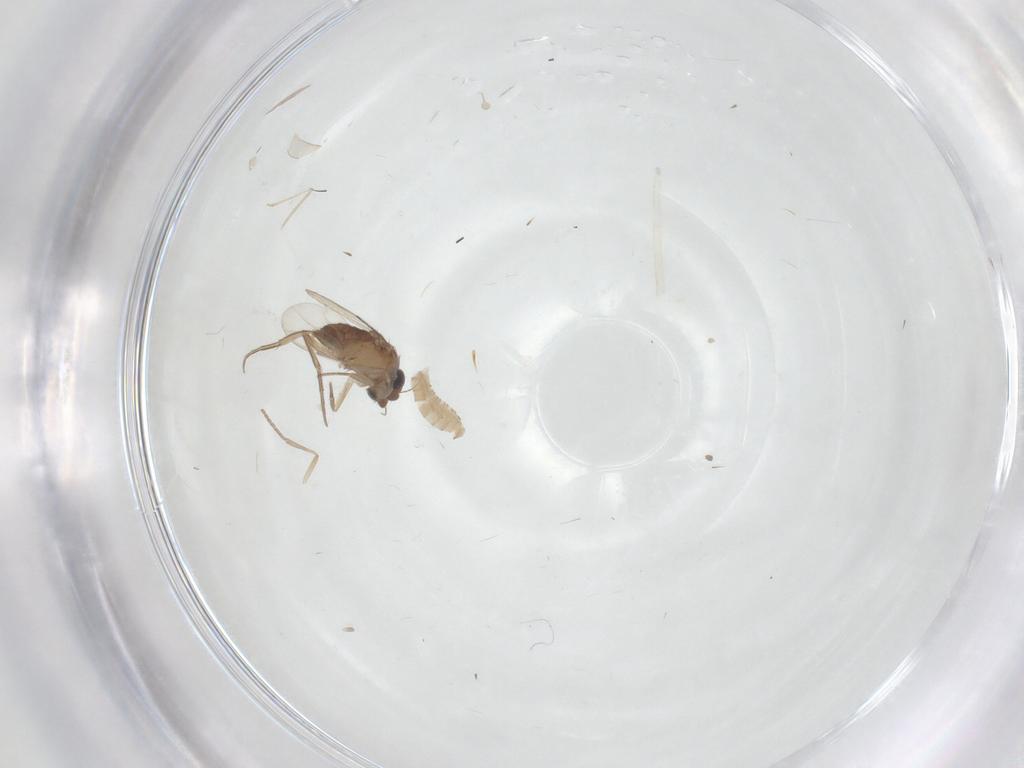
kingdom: Animalia
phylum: Arthropoda
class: Insecta
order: Diptera
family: Cecidomyiidae
